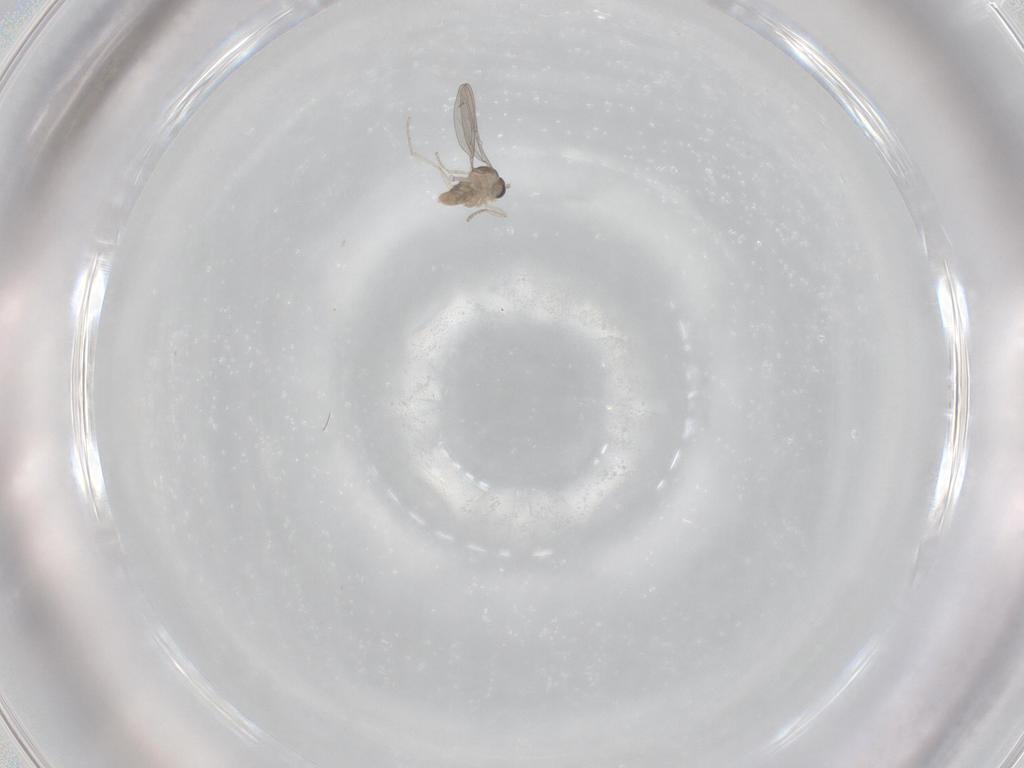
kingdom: Animalia
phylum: Arthropoda
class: Insecta
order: Diptera
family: Cecidomyiidae
